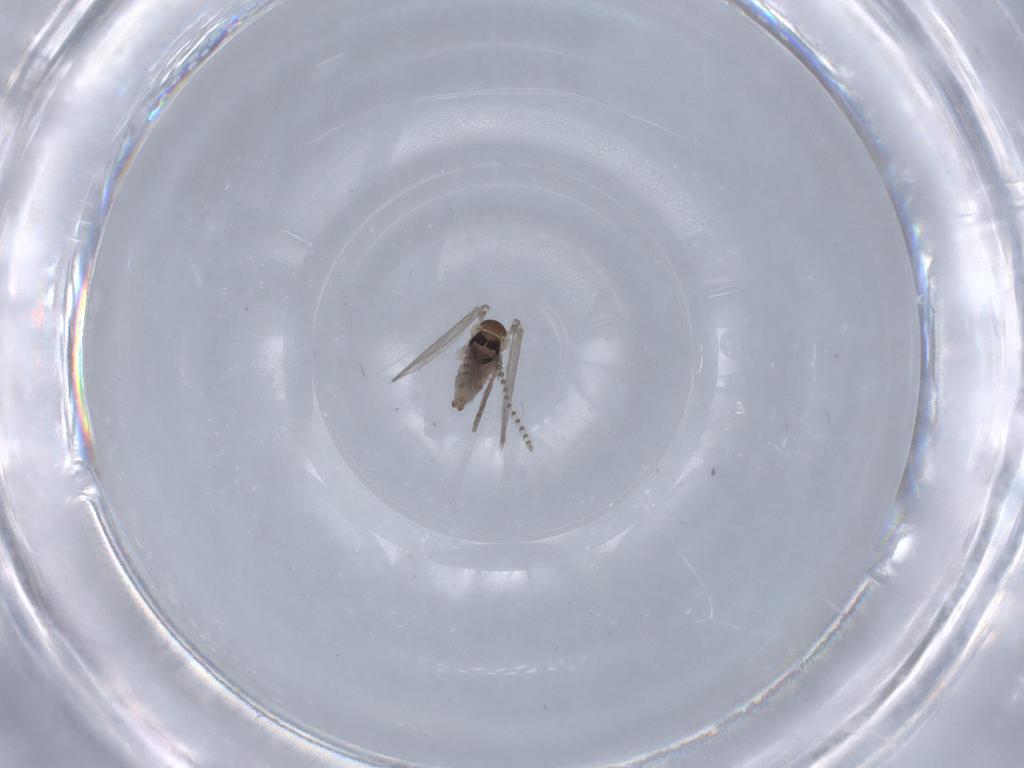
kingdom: Animalia
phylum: Arthropoda
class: Insecta
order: Diptera
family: Psychodidae
